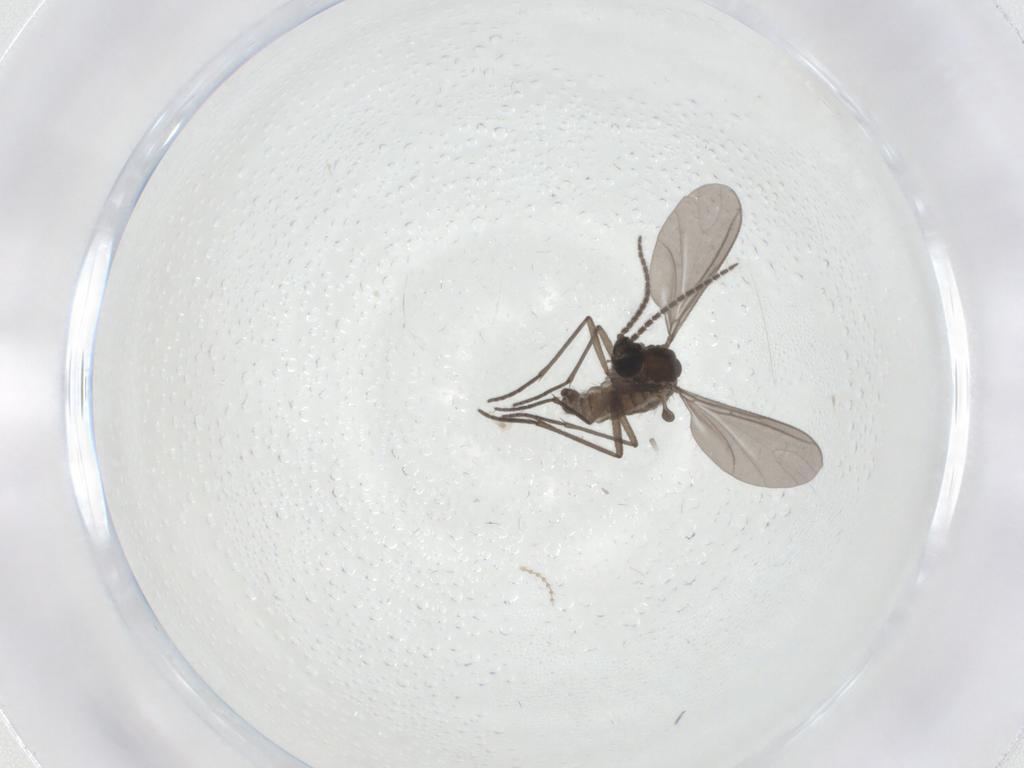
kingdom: Animalia
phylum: Arthropoda
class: Insecta
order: Diptera
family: Sciaridae
